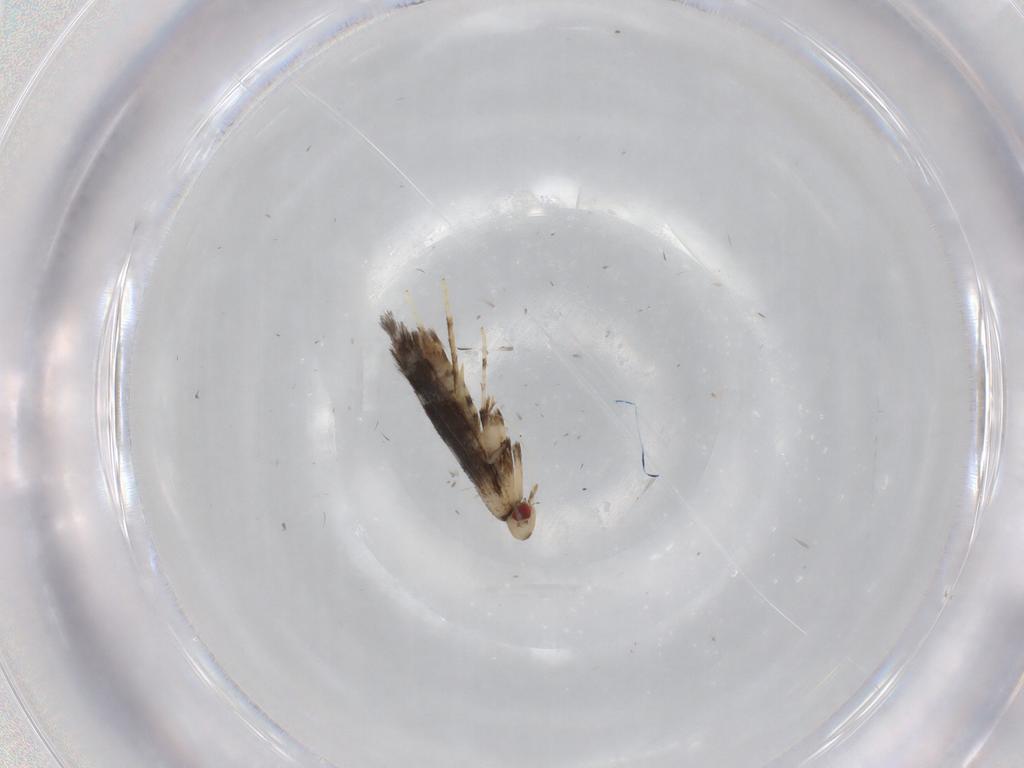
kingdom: Animalia
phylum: Arthropoda
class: Insecta
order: Lepidoptera
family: Gracillariidae
